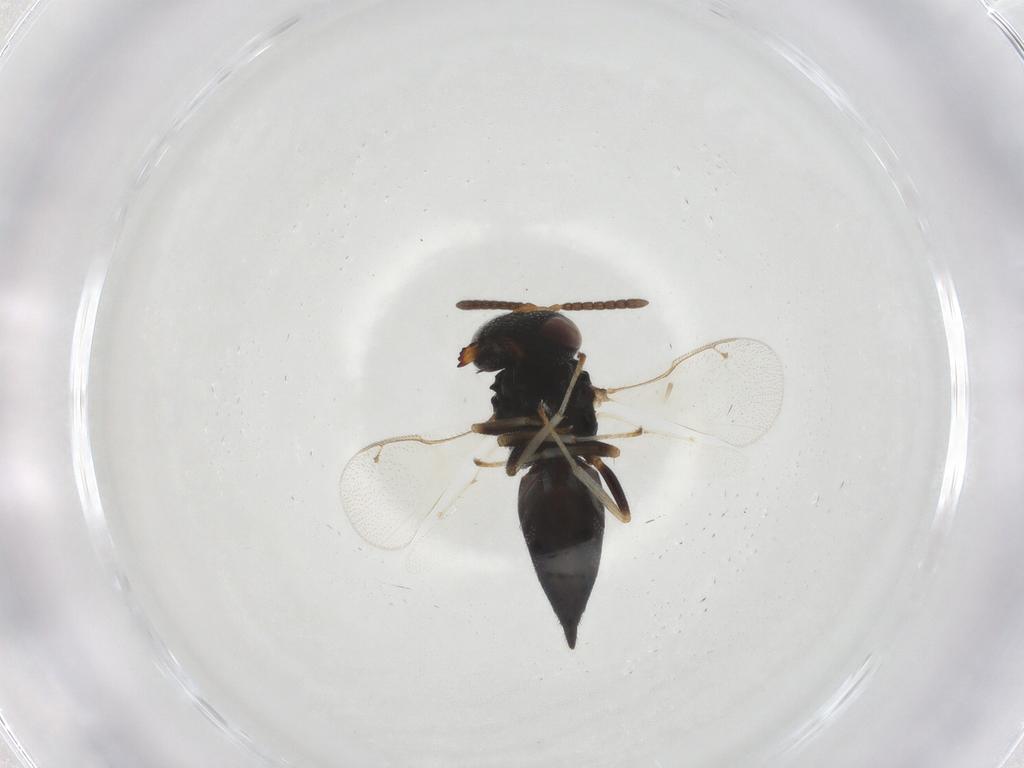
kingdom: Animalia
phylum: Arthropoda
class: Insecta
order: Hymenoptera
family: Pteromalidae
